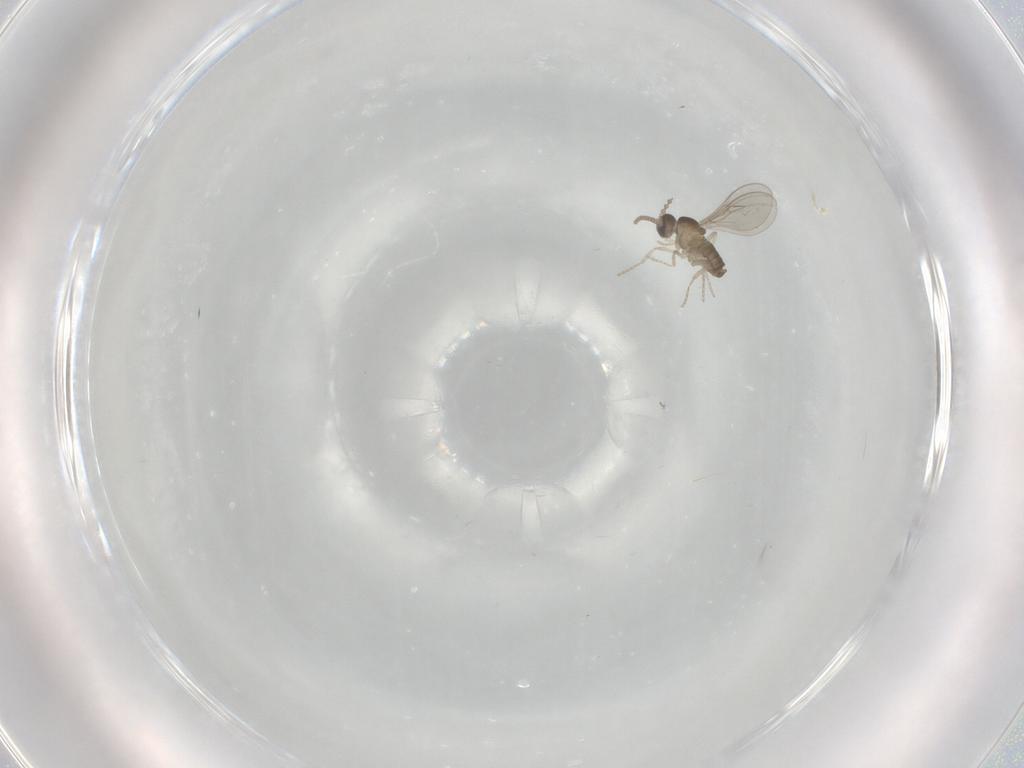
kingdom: Animalia
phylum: Arthropoda
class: Insecta
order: Diptera
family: Cecidomyiidae
